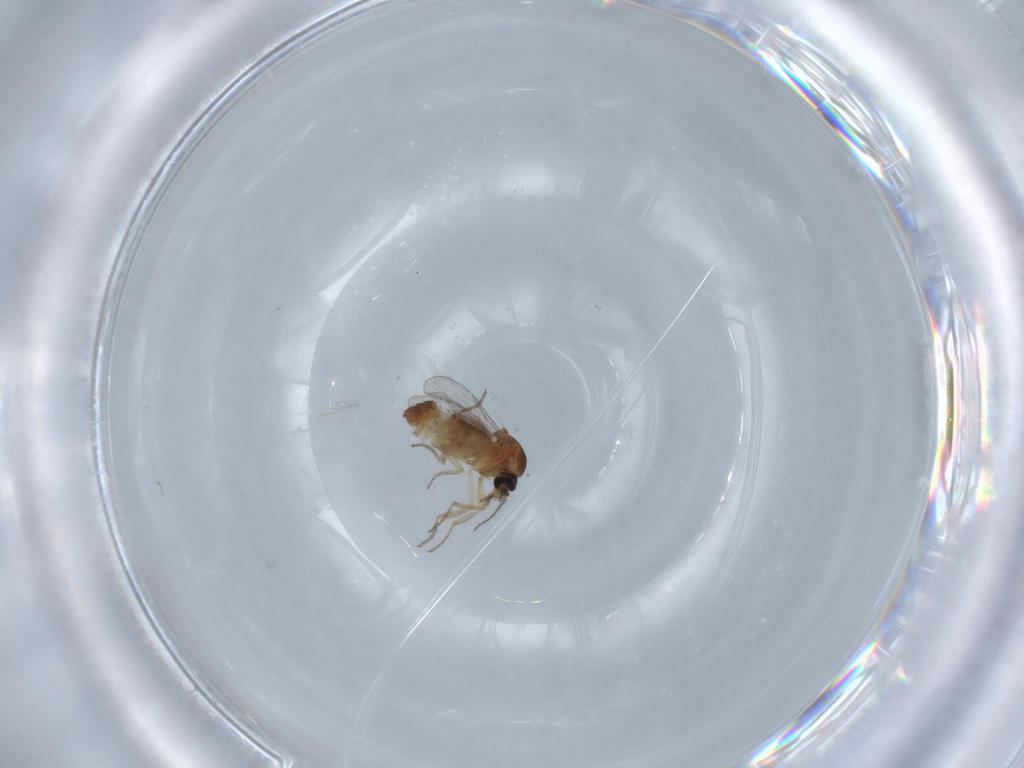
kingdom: Animalia
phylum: Arthropoda
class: Insecta
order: Diptera
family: Ceratopogonidae
